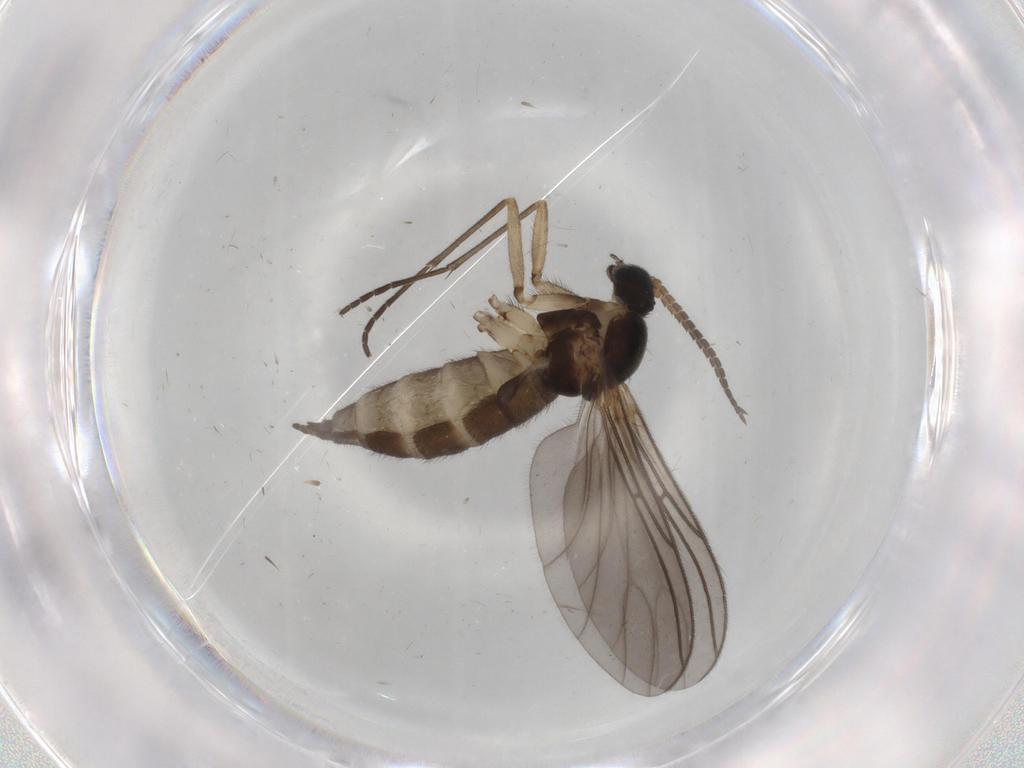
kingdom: Animalia
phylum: Arthropoda
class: Insecta
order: Diptera
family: Sciaridae
